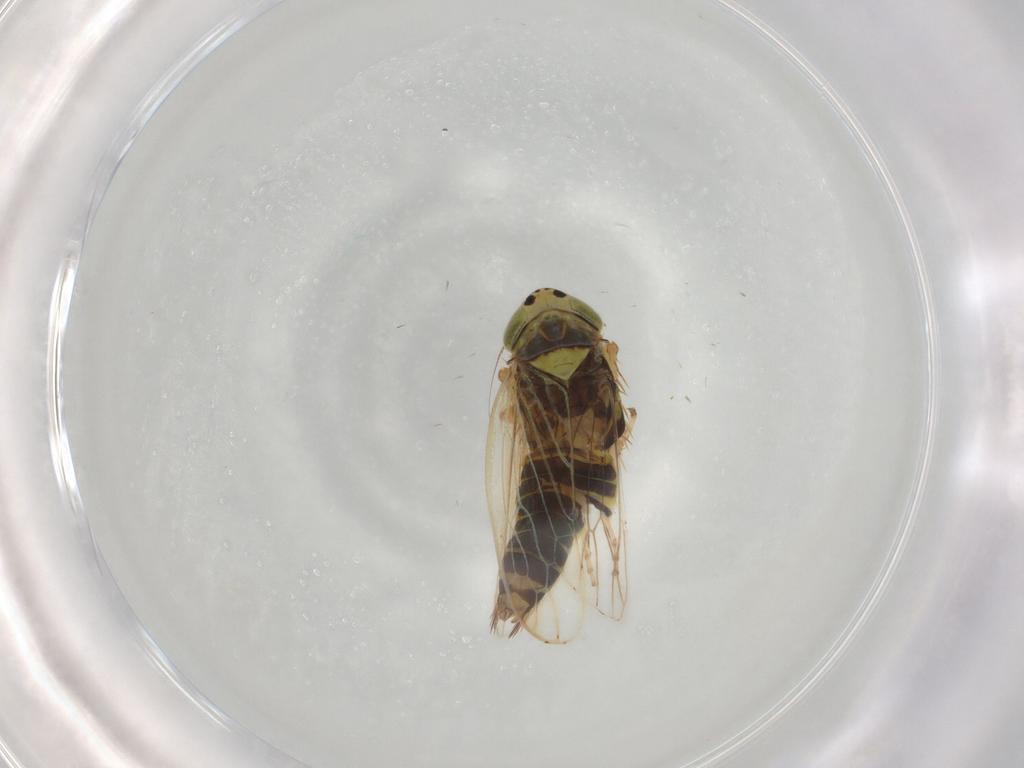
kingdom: Animalia
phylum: Arthropoda
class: Insecta
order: Hemiptera
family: Cicadellidae
